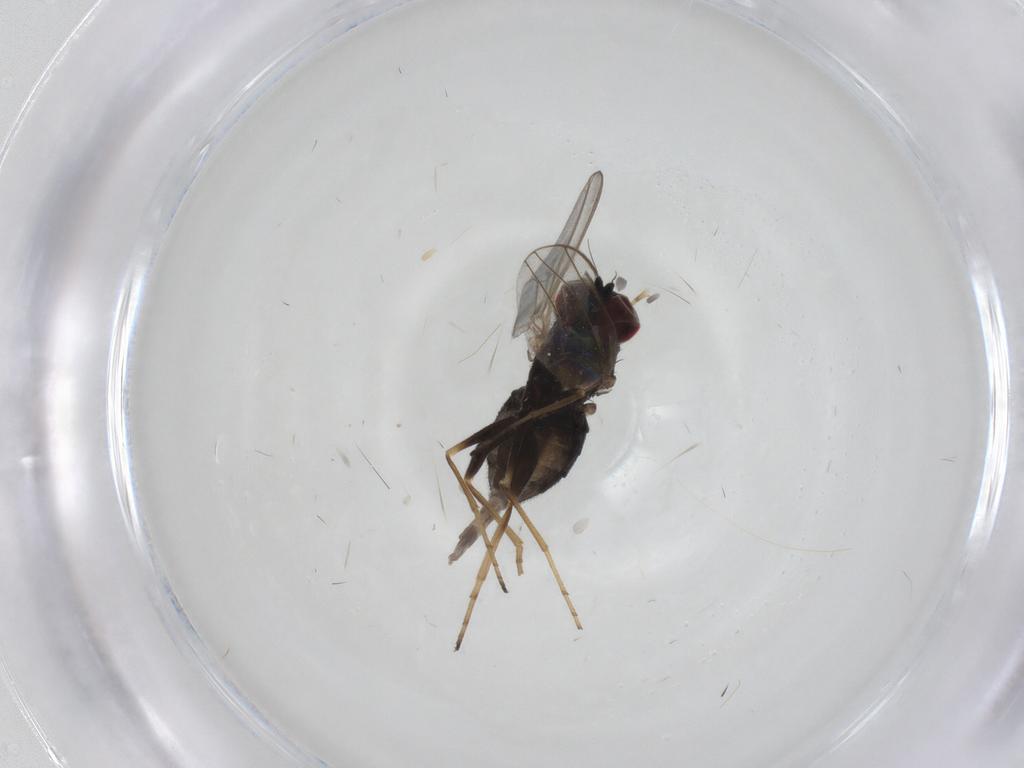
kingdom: Animalia
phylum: Arthropoda
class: Insecta
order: Diptera
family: Dolichopodidae
